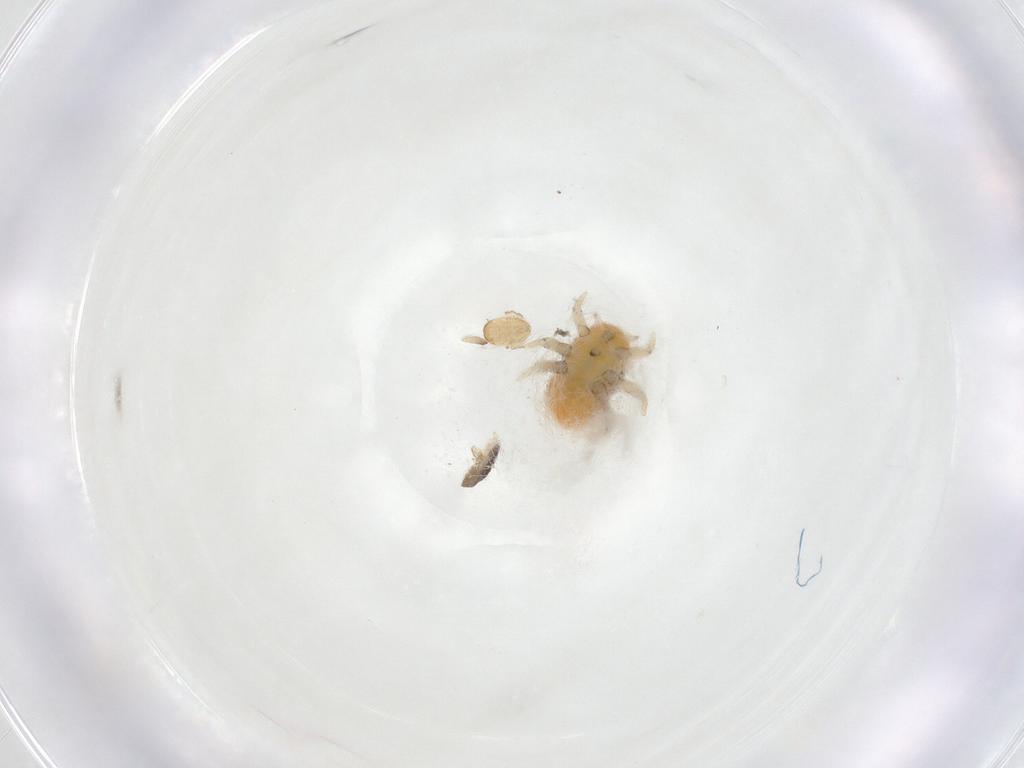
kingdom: Animalia
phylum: Arthropoda
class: Insecta
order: Hemiptera
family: Triozidae
